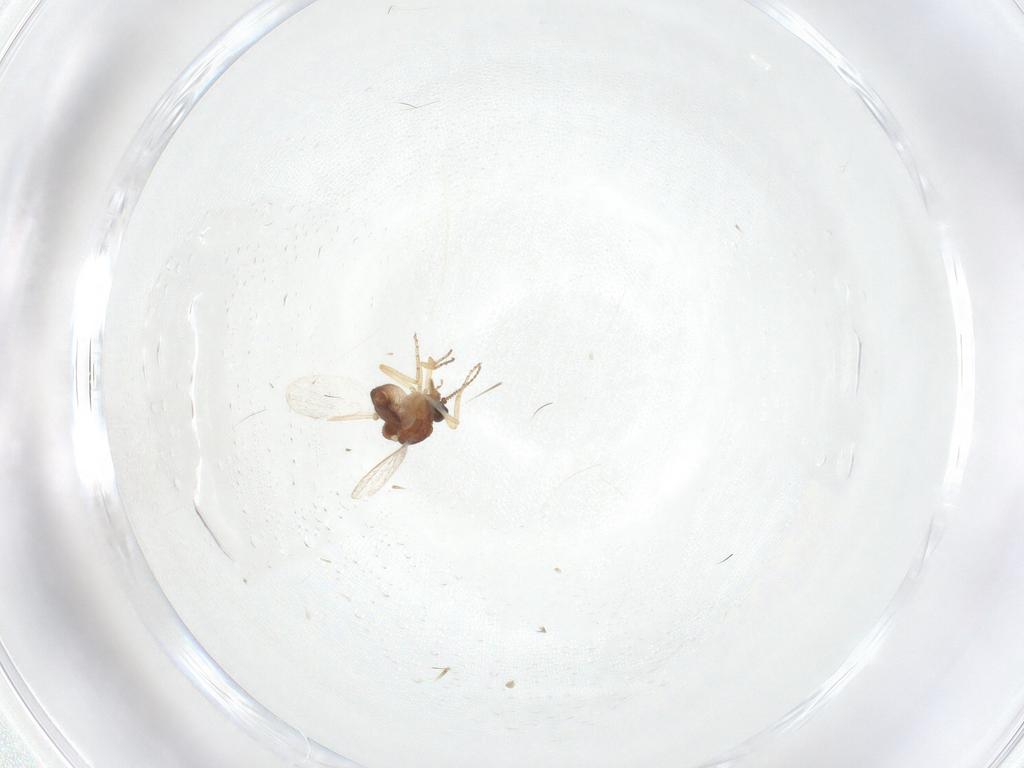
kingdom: Animalia
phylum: Arthropoda
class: Insecta
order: Diptera
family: Ceratopogonidae
